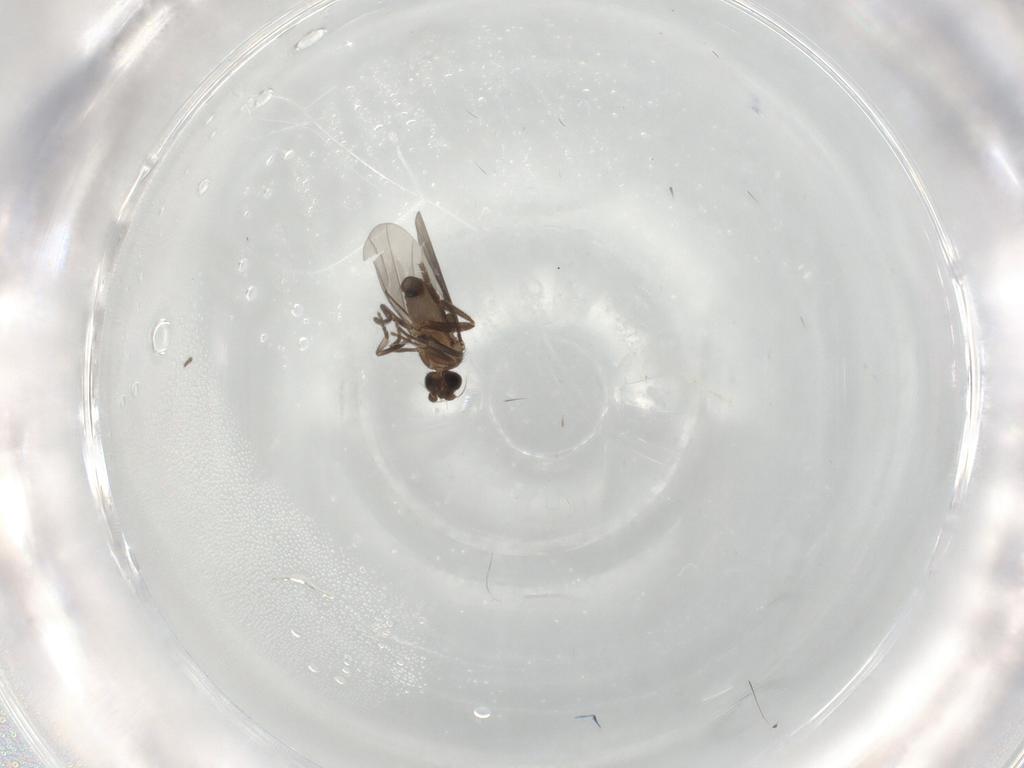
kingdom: Animalia
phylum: Arthropoda
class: Insecta
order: Diptera
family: Phoridae
